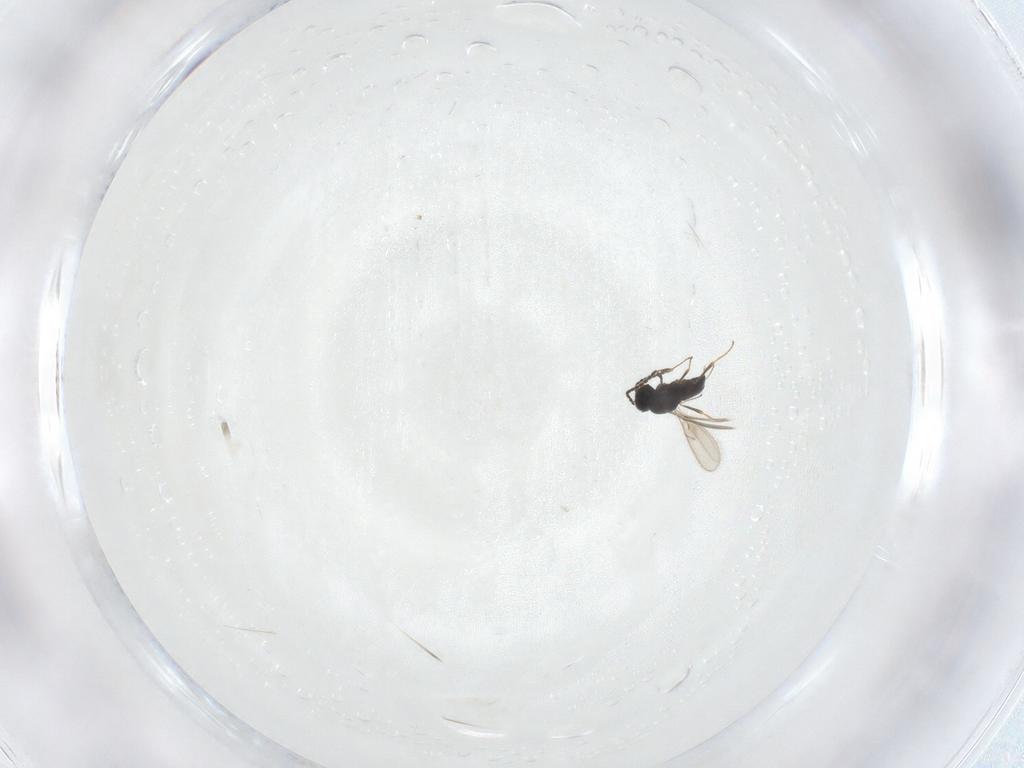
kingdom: Animalia
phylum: Arthropoda
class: Insecta
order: Hymenoptera
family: Scelionidae
